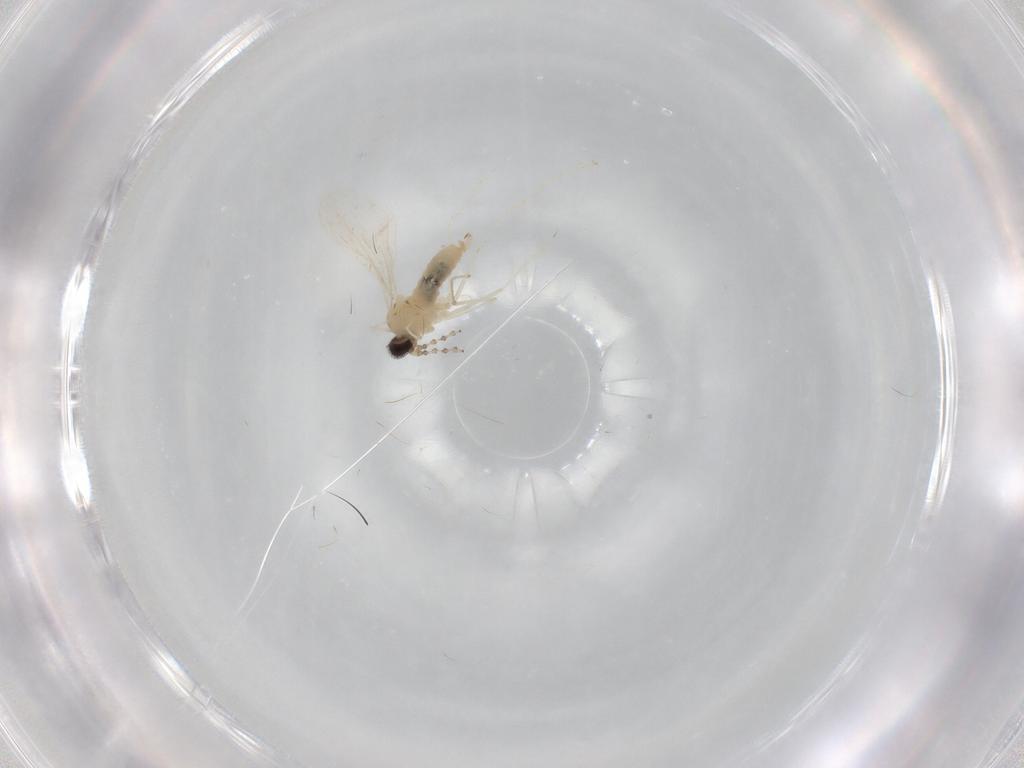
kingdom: Animalia
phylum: Arthropoda
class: Insecta
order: Diptera
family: Cecidomyiidae
